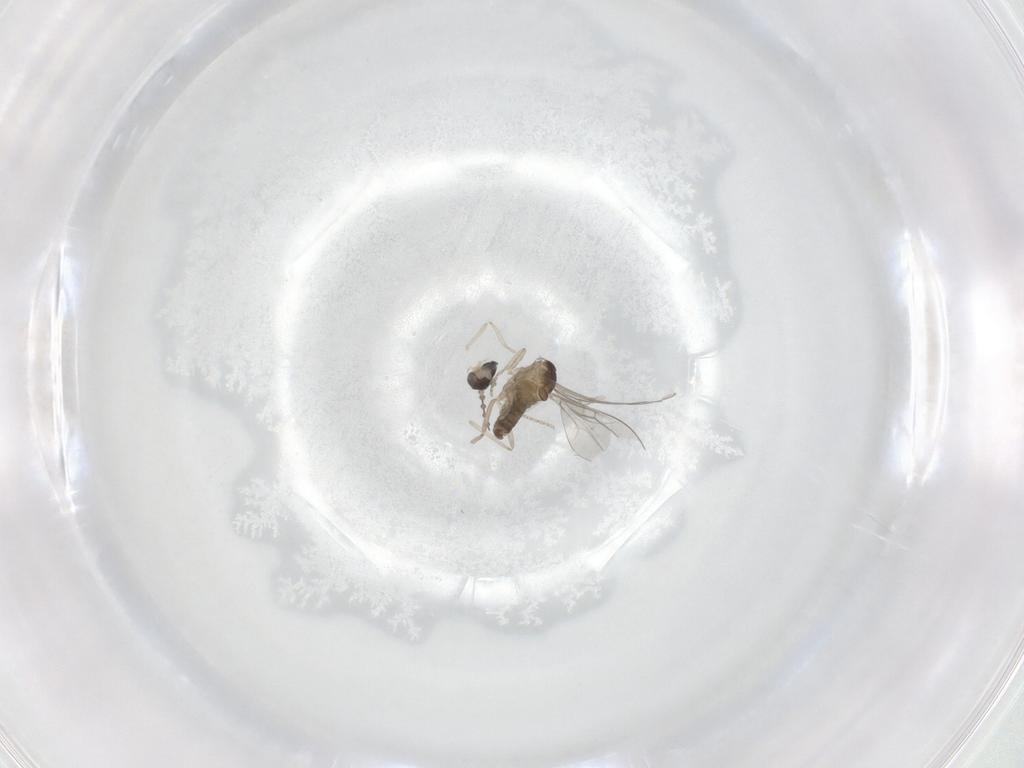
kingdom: Animalia
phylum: Arthropoda
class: Insecta
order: Diptera
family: Cecidomyiidae
